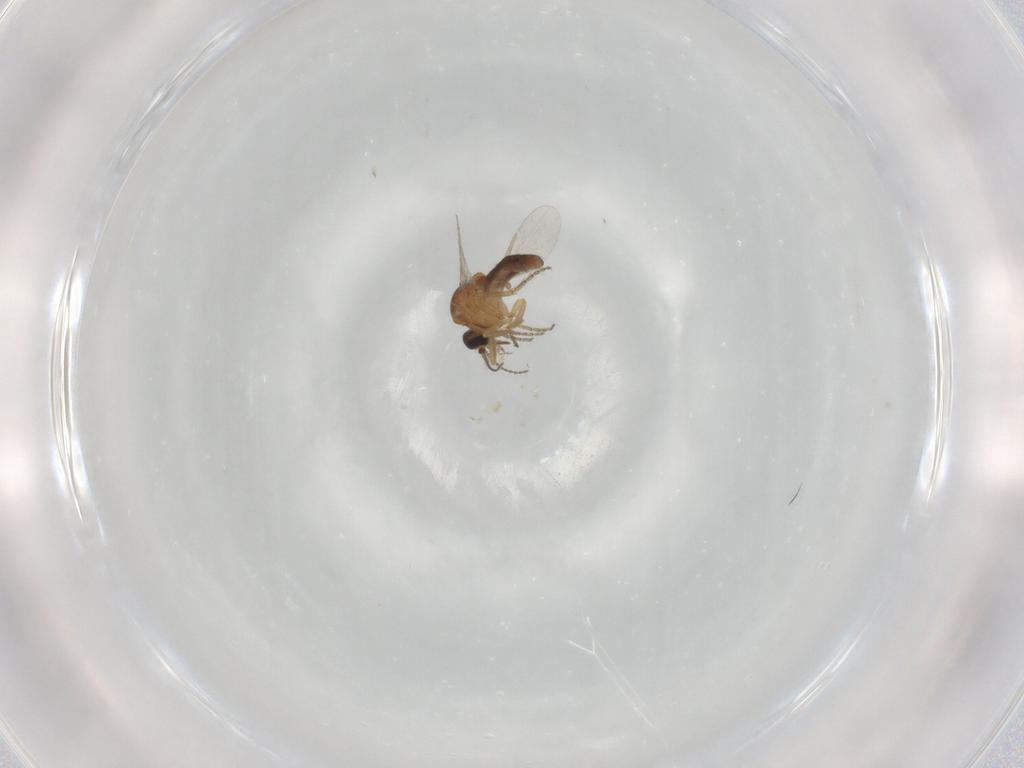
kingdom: Animalia
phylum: Arthropoda
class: Insecta
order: Diptera
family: Ceratopogonidae
